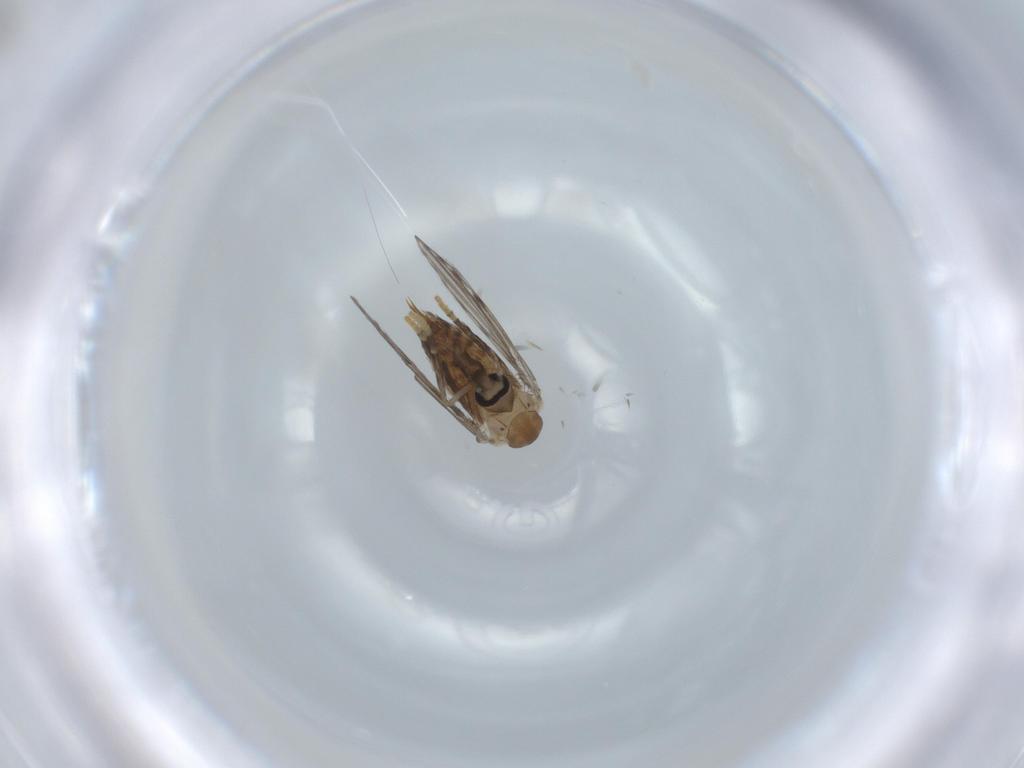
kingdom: Animalia
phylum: Arthropoda
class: Insecta
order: Diptera
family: Psychodidae
